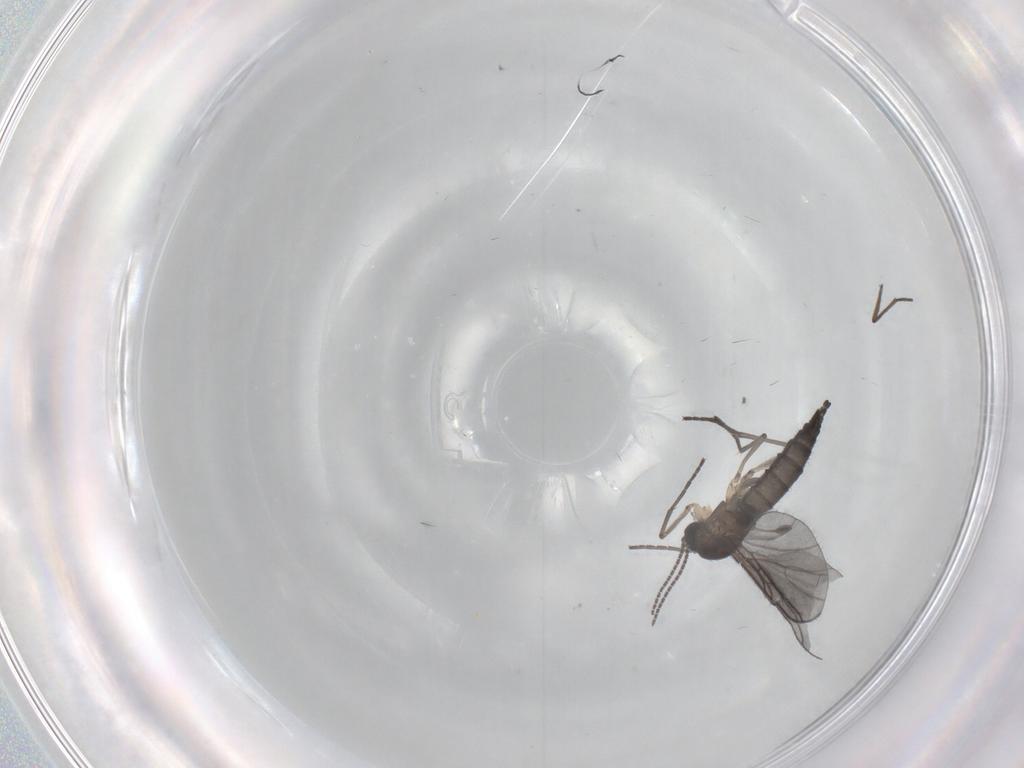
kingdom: Animalia
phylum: Arthropoda
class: Insecta
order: Diptera
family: Sciaridae
